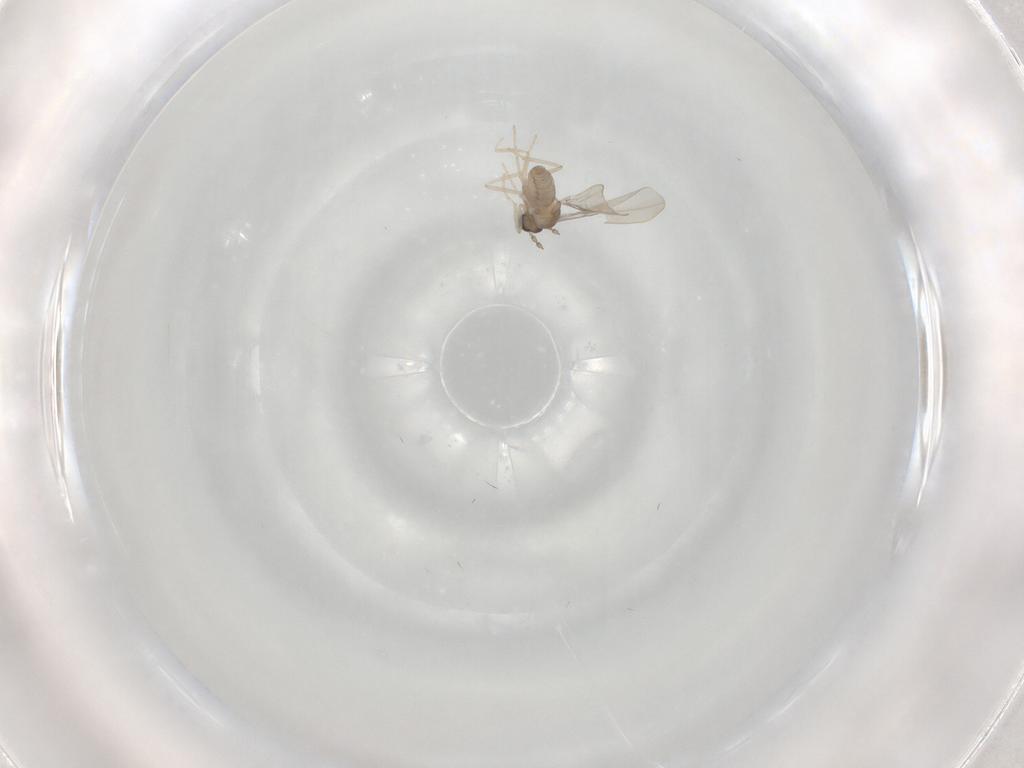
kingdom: Animalia
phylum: Arthropoda
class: Insecta
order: Diptera
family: Cecidomyiidae
